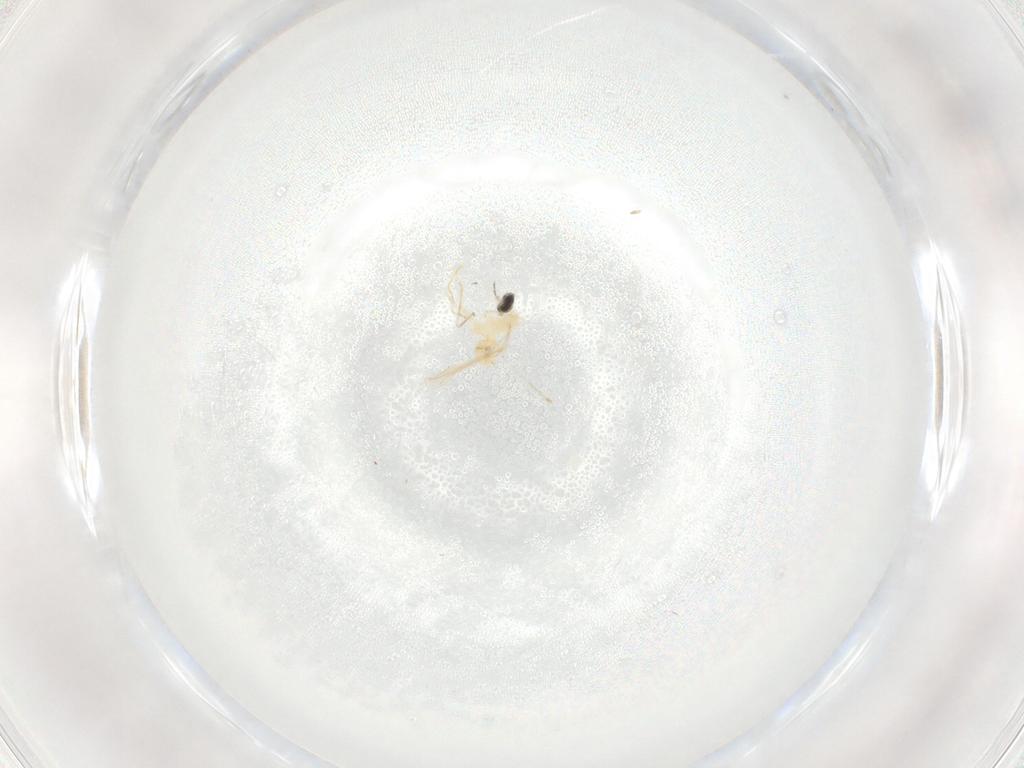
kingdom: Animalia
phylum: Arthropoda
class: Insecta
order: Diptera
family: Cecidomyiidae
